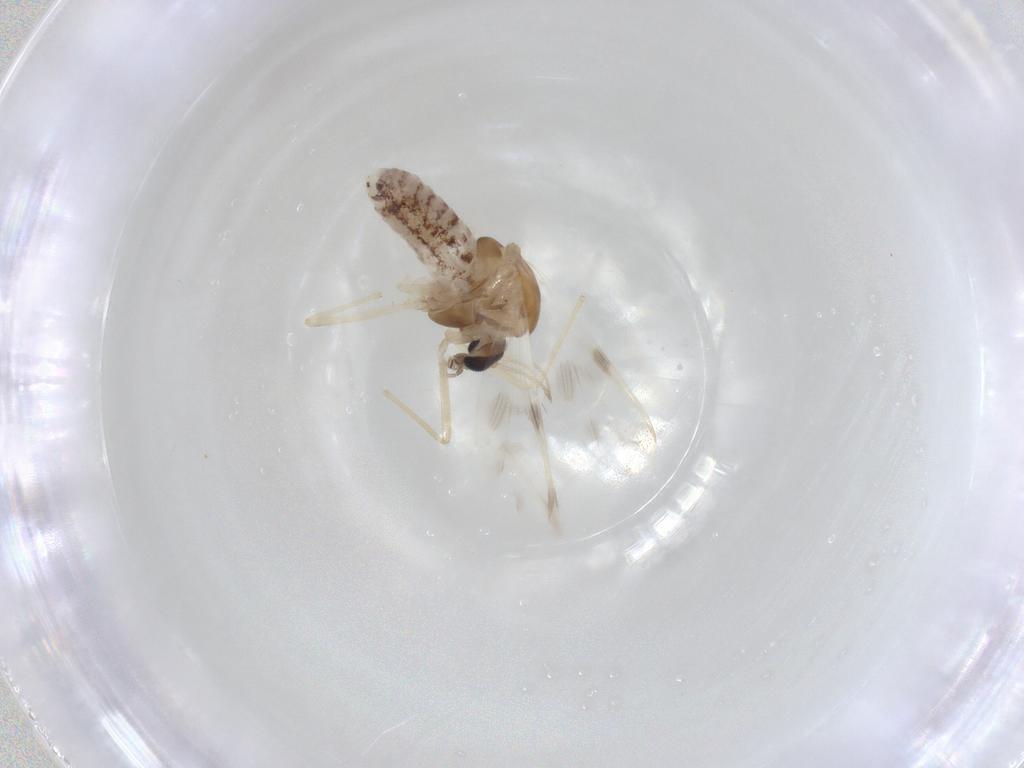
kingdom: Animalia
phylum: Arthropoda
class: Insecta
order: Diptera
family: Chironomidae
